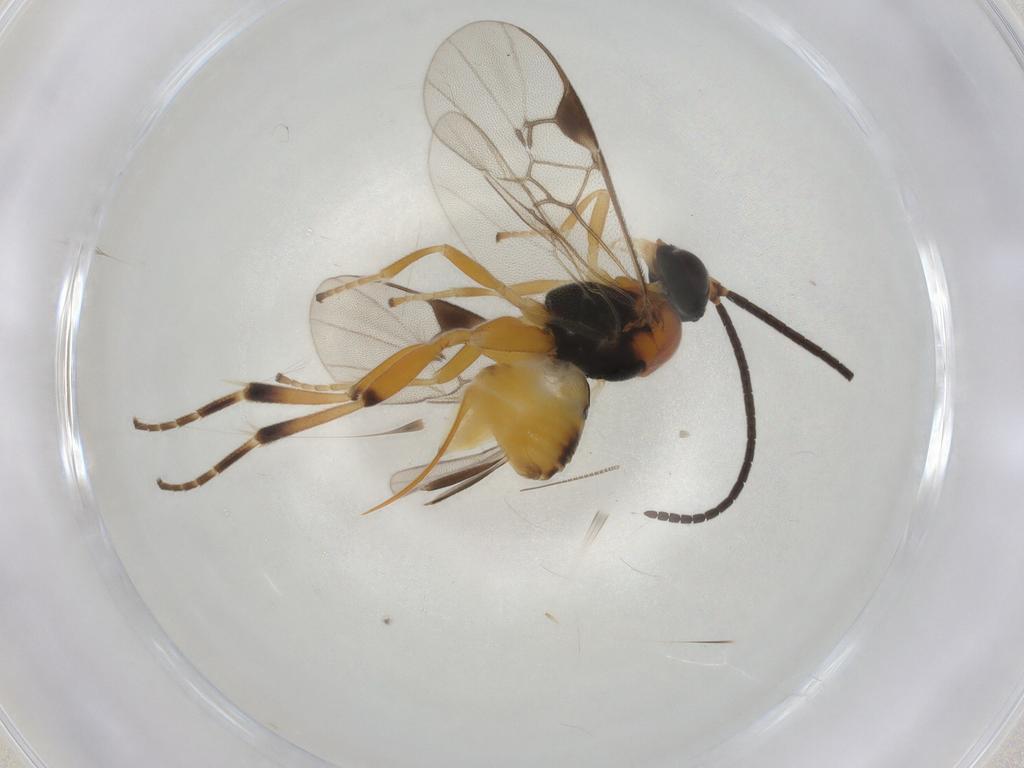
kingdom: Animalia
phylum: Arthropoda
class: Insecta
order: Hymenoptera
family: Braconidae
